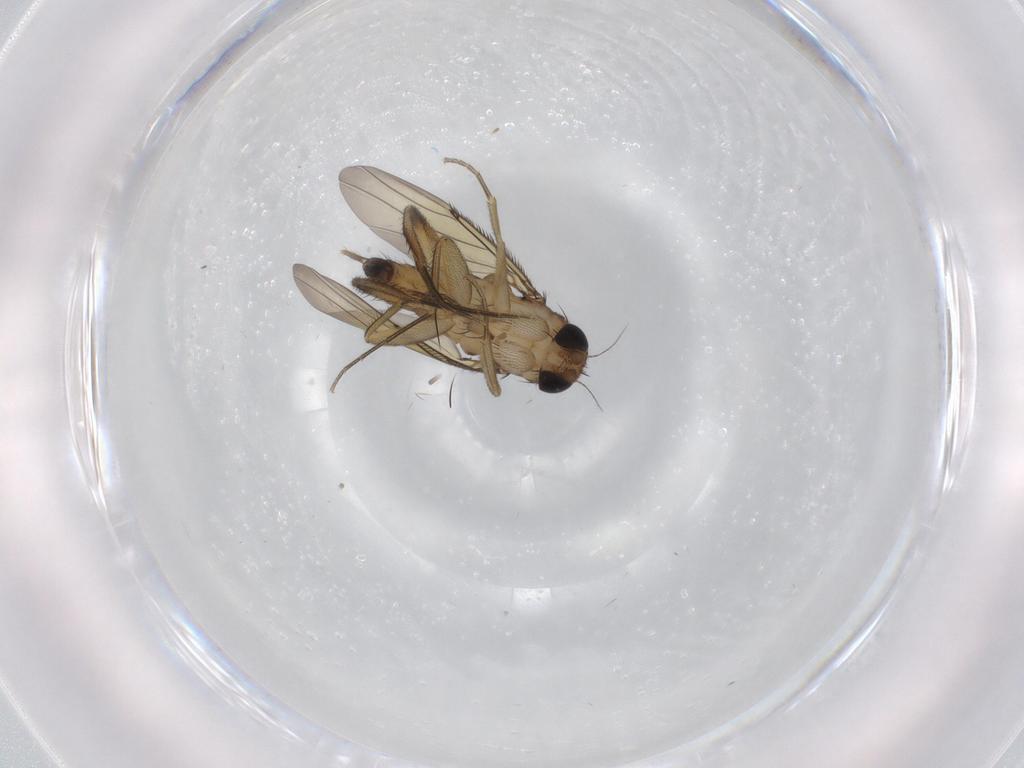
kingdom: Animalia
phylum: Arthropoda
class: Insecta
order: Diptera
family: Phoridae
